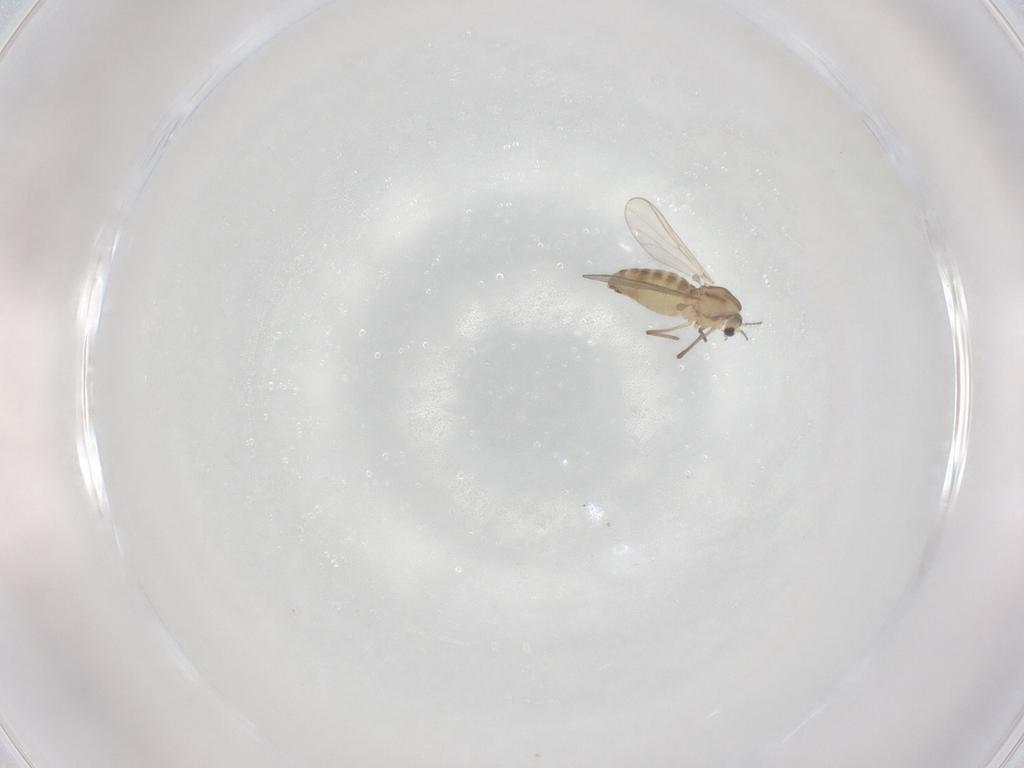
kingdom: Animalia
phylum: Arthropoda
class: Insecta
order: Diptera
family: Chironomidae
